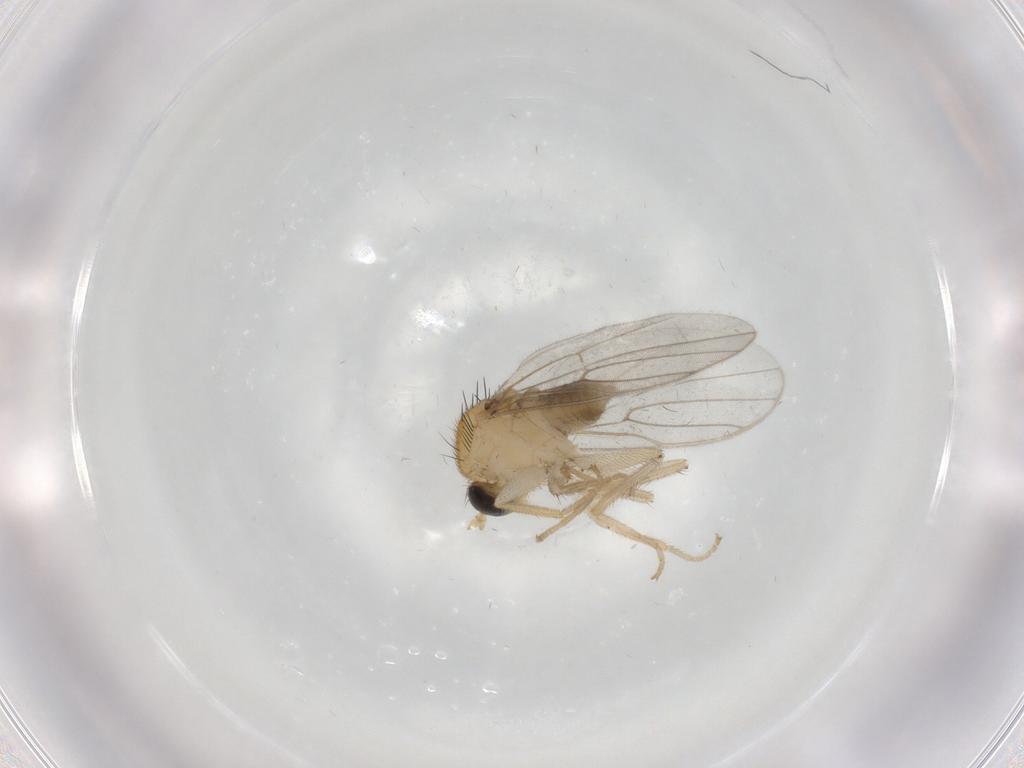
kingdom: Animalia
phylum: Arthropoda
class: Insecta
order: Diptera
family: Hybotidae
